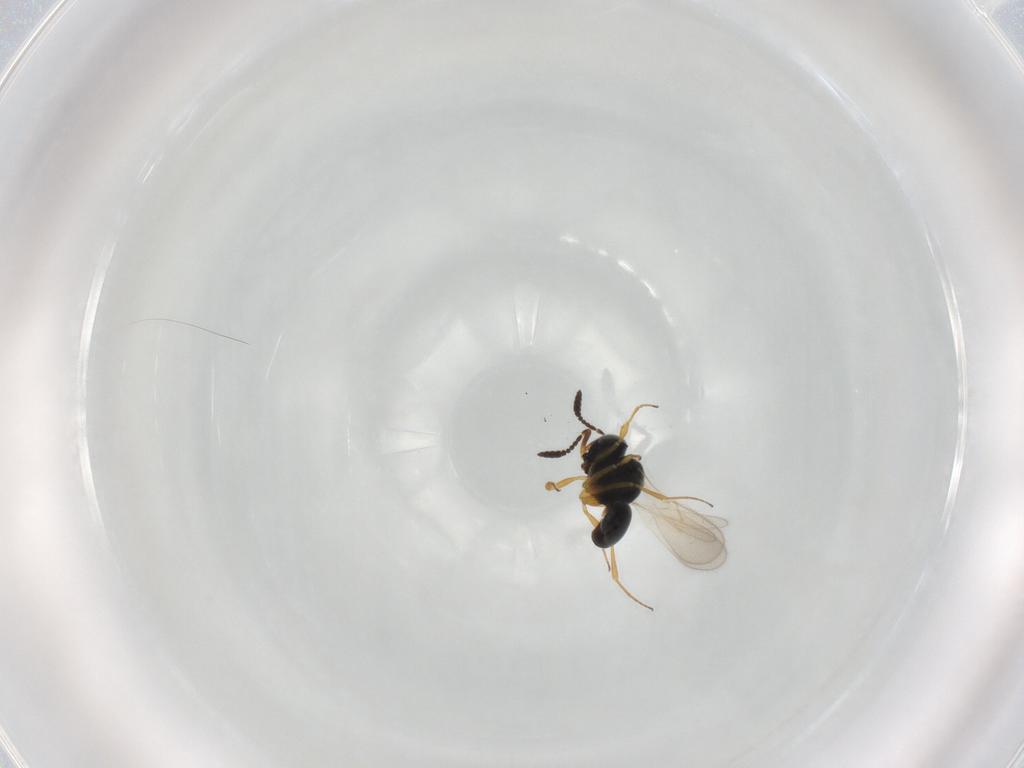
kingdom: Animalia
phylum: Arthropoda
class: Insecta
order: Hymenoptera
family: Scelionidae
